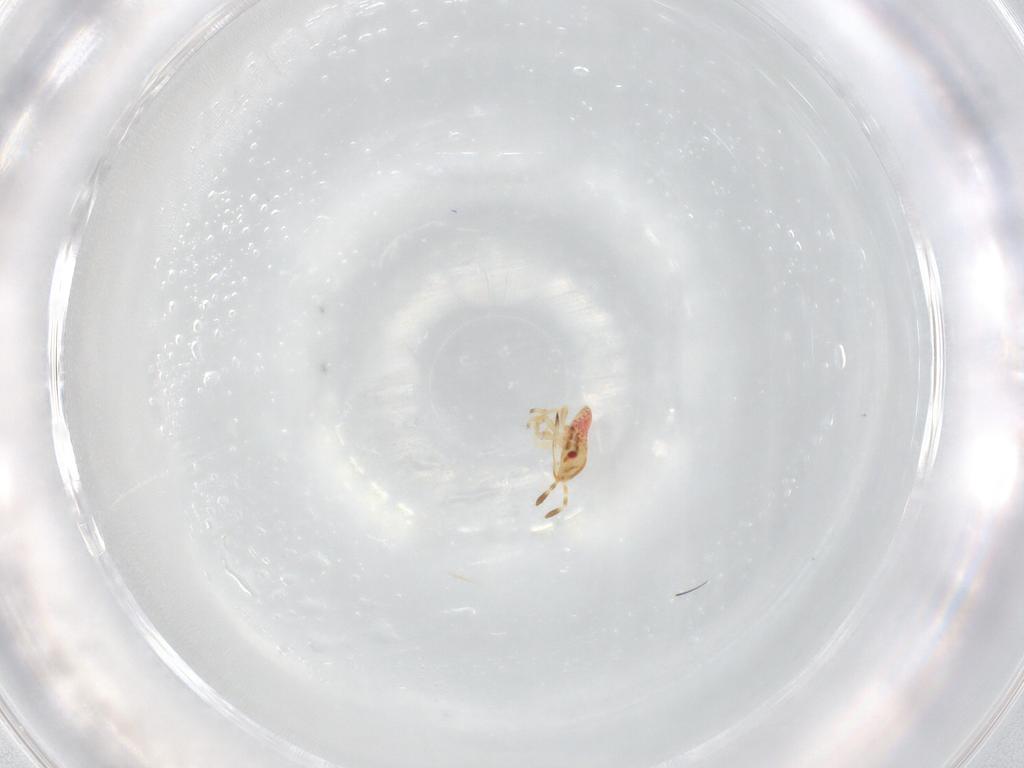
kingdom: Animalia
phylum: Arthropoda
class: Insecta
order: Hemiptera
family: Lygaeidae
